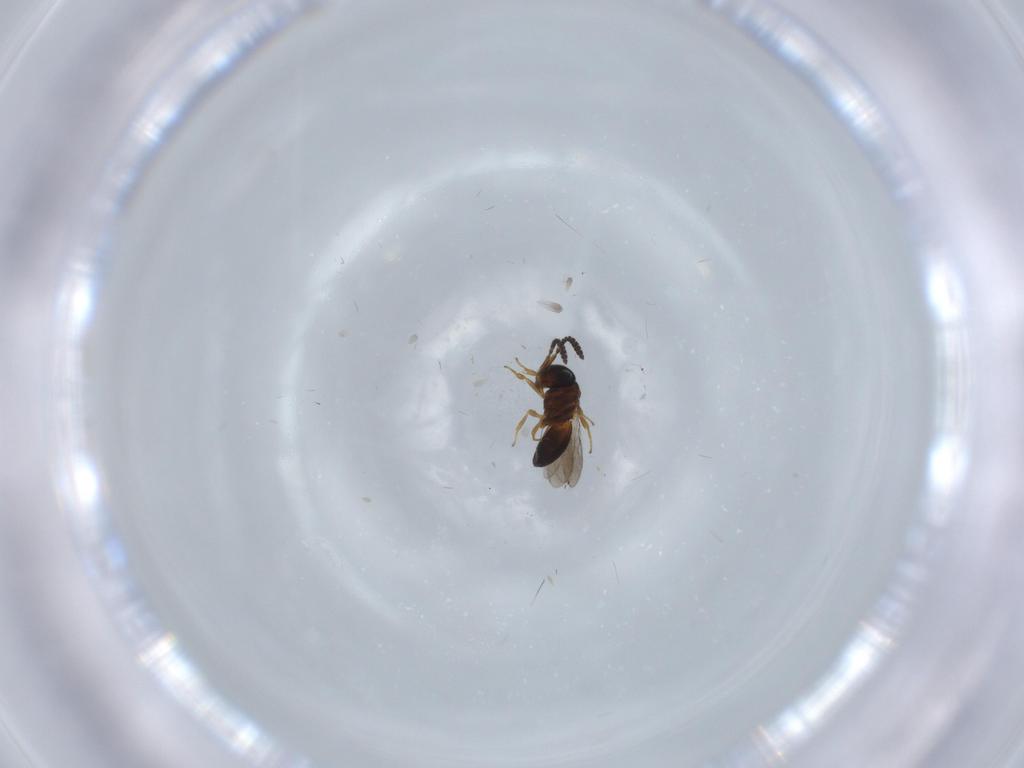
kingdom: Animalia
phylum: Arthropoda
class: Insecta
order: Hymenoptera
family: Scelionidae
